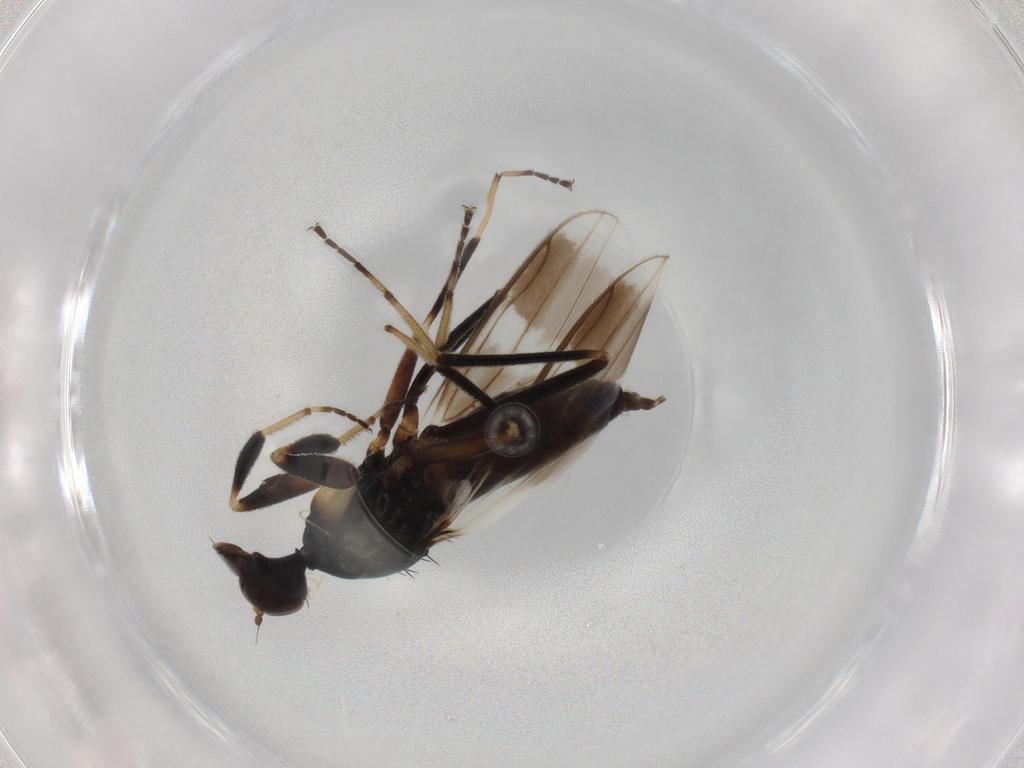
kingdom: Animalia
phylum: Arthropoda
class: Insecta
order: Diptera
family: Hybotidae
